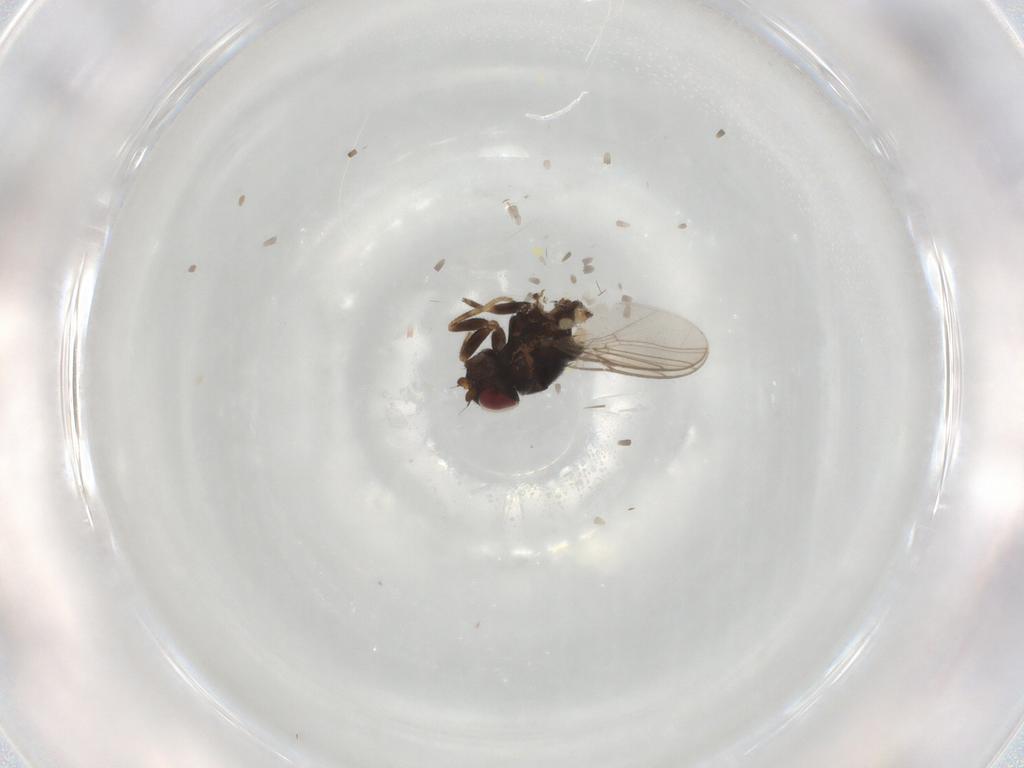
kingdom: Animalia
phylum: Arthropoda
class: Insecta
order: Diptera
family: Chloropidae
